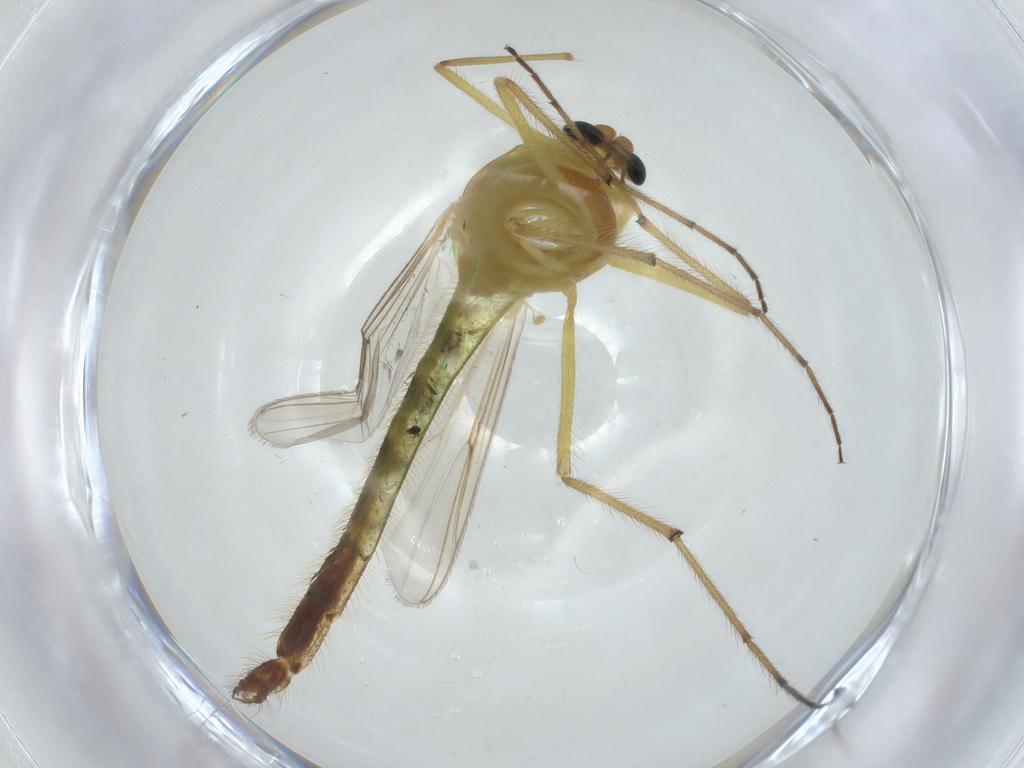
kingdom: Animalia
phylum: Arthropoda
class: Insecta
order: Diptera
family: Chironomidae
